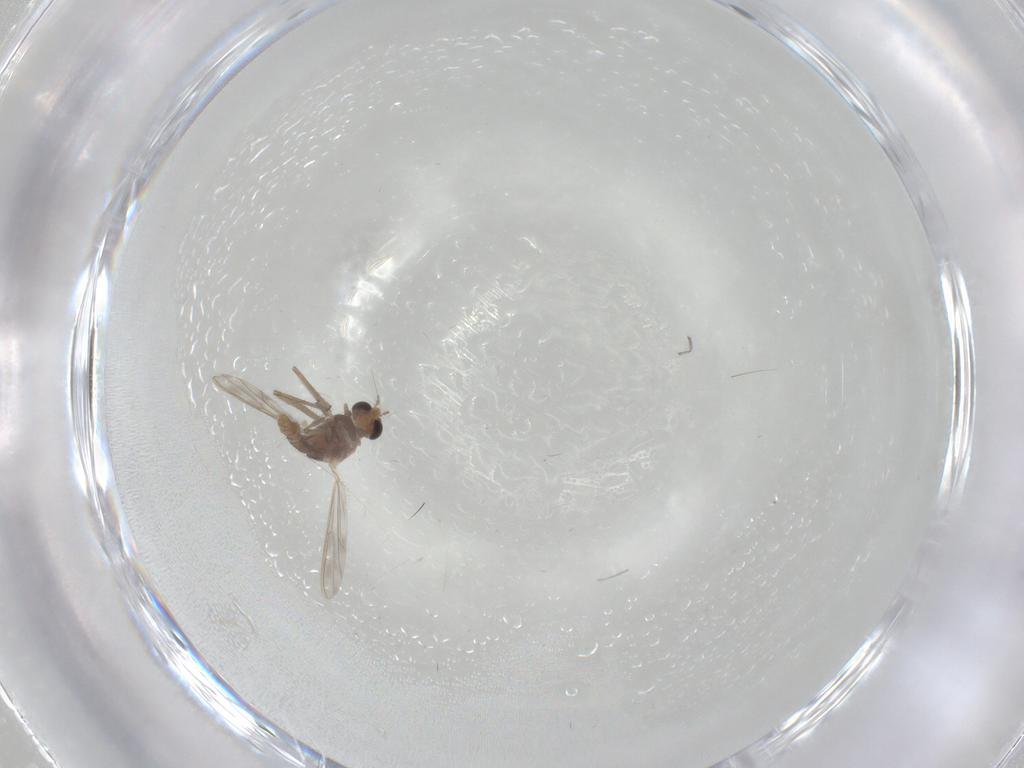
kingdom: Animalia
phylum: Arthropoda
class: Insecta
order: Diptera
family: Chironomidae
